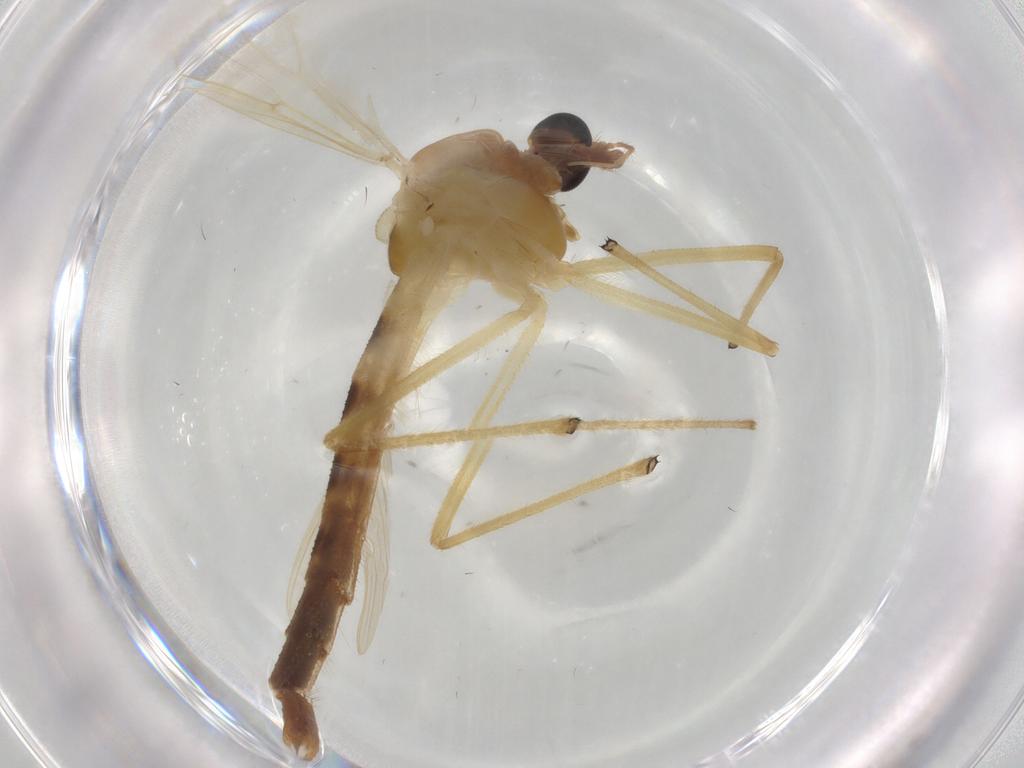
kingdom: Animalia
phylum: Arthropoda
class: Insecta
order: Diptera
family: Chironomidae
